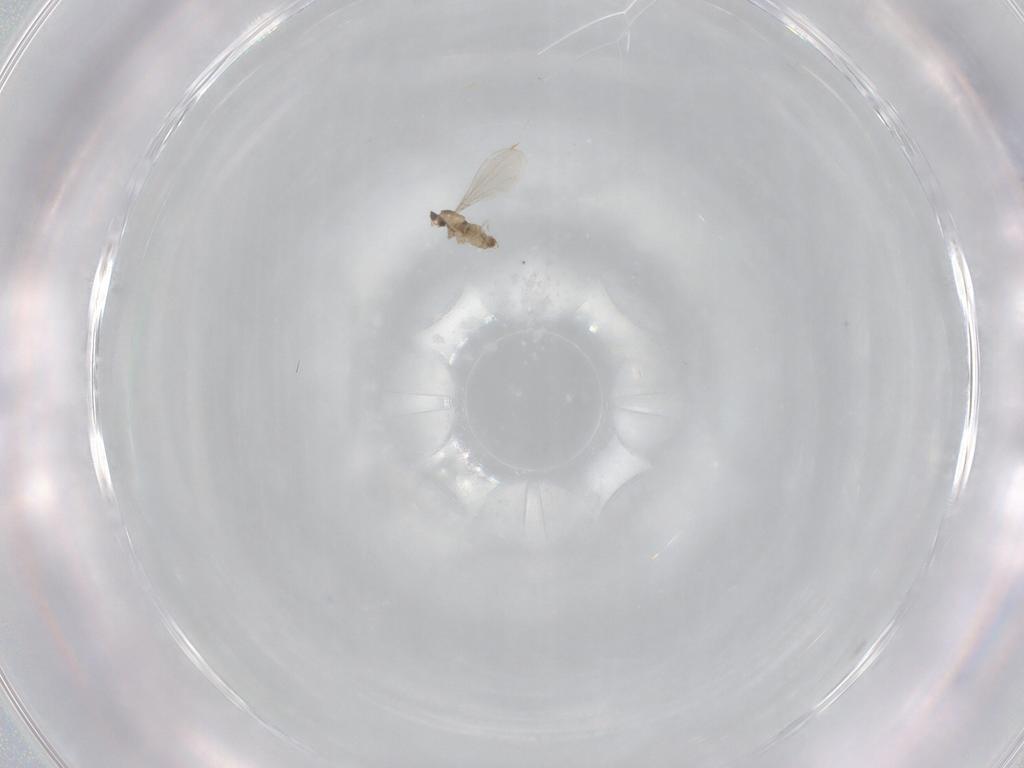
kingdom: Animalia
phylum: Arthropoda
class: Insecta
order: Diptera
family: Cecidomyiidae
